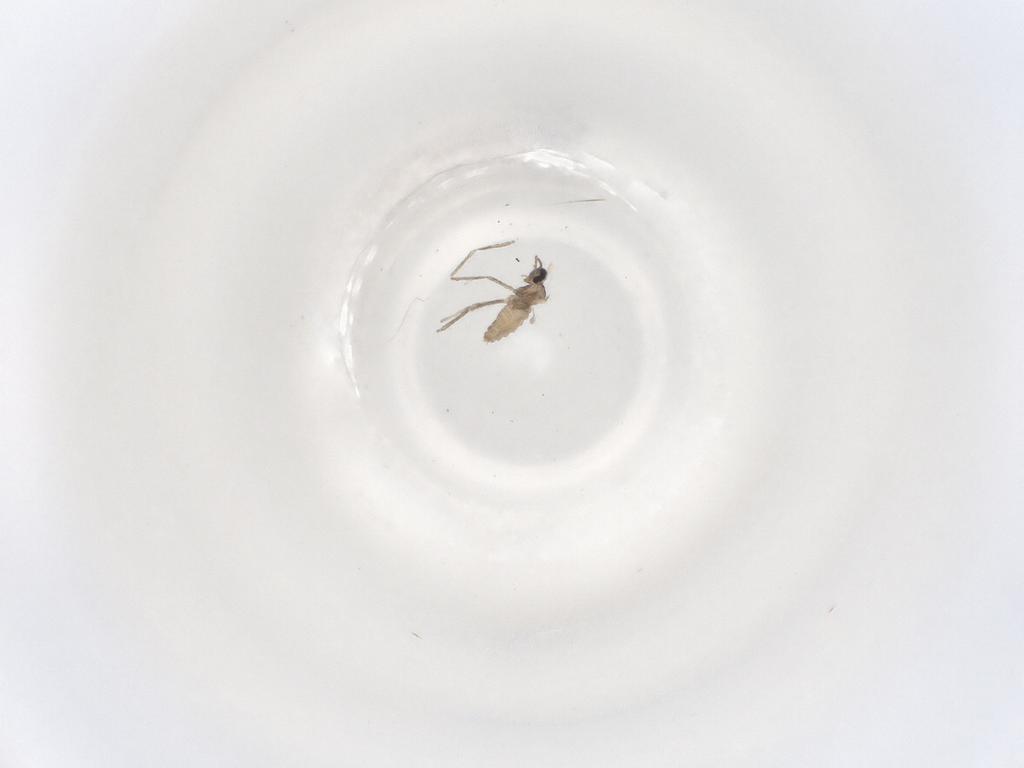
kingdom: Animalia
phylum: Arthropoda
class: Insecta
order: Diptera
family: Cecidomyiidae
